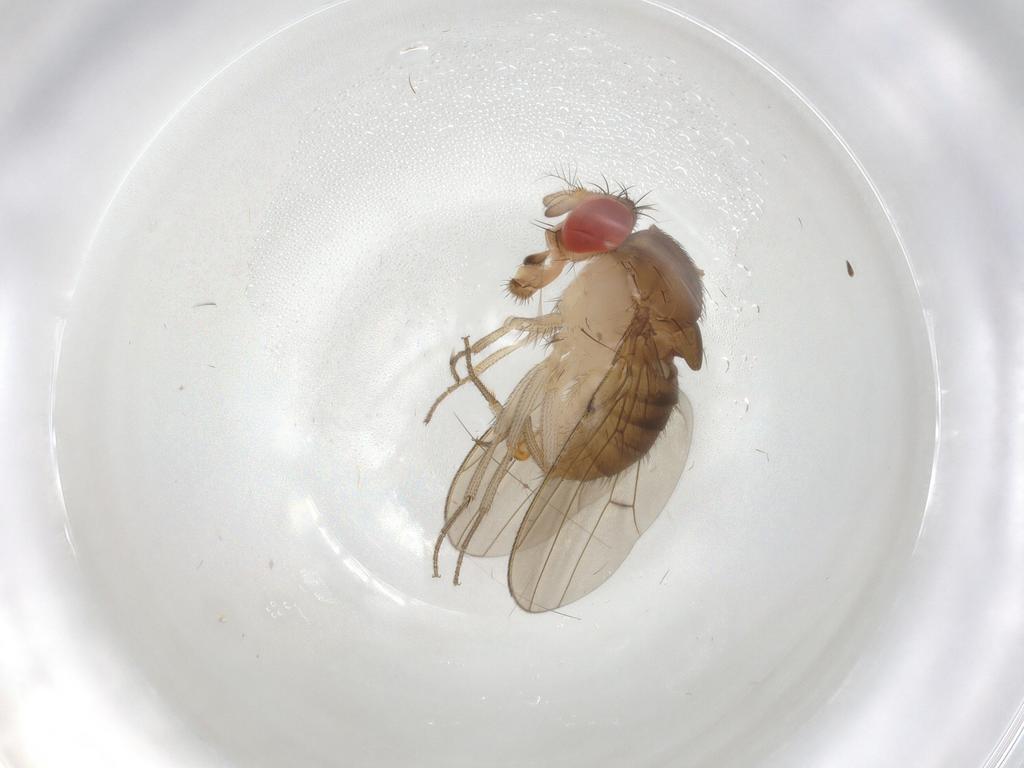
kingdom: Animalia
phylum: Arthropoda
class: Insecta
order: Diptera
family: Drosophilidae
